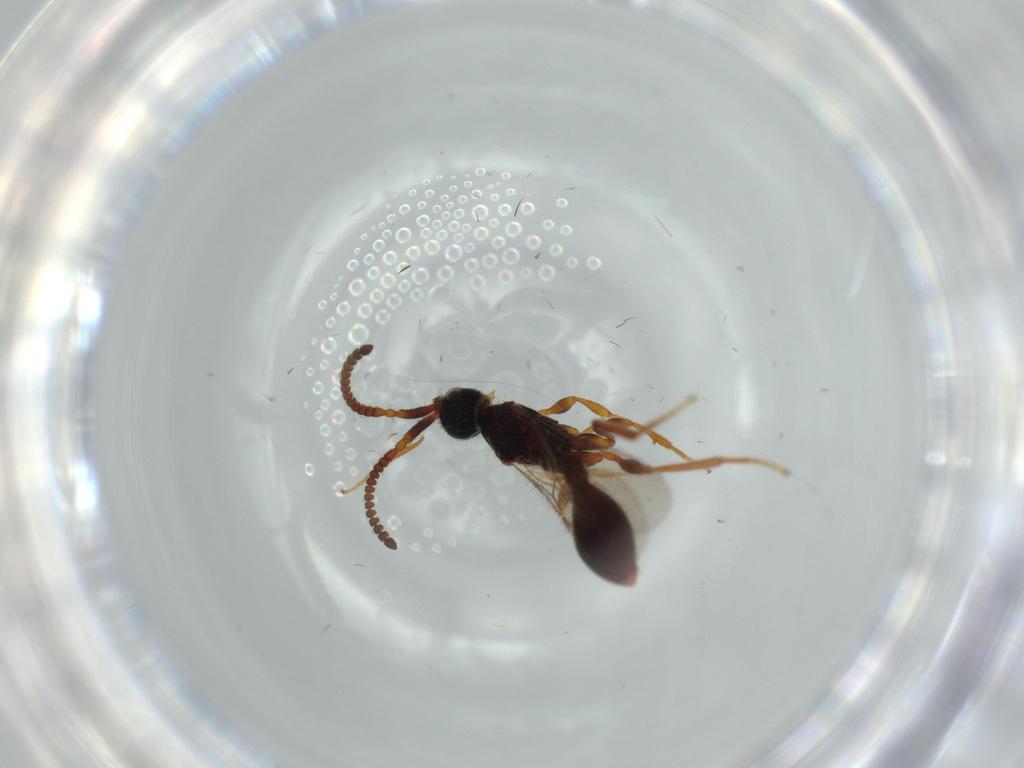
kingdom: Animalia
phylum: Arthropoda
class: Insecta
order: Hymenoptera
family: Diapriidae
